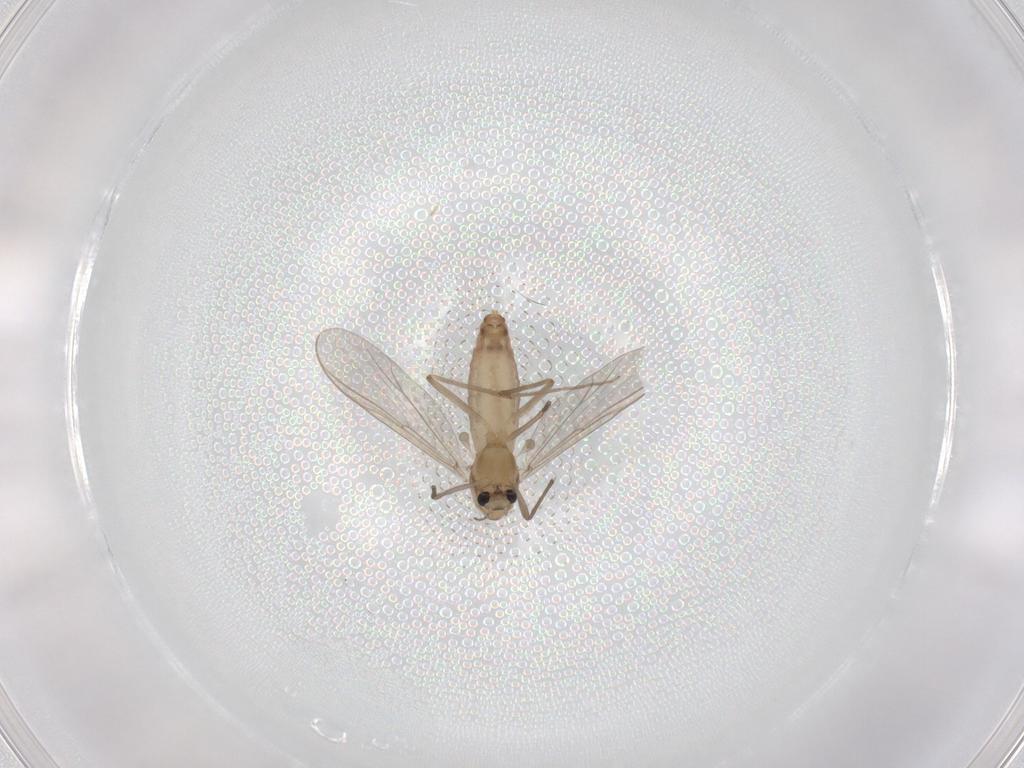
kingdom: Animalia
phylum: Arthropoda
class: Insecta
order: Diptera
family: Chironomidae
